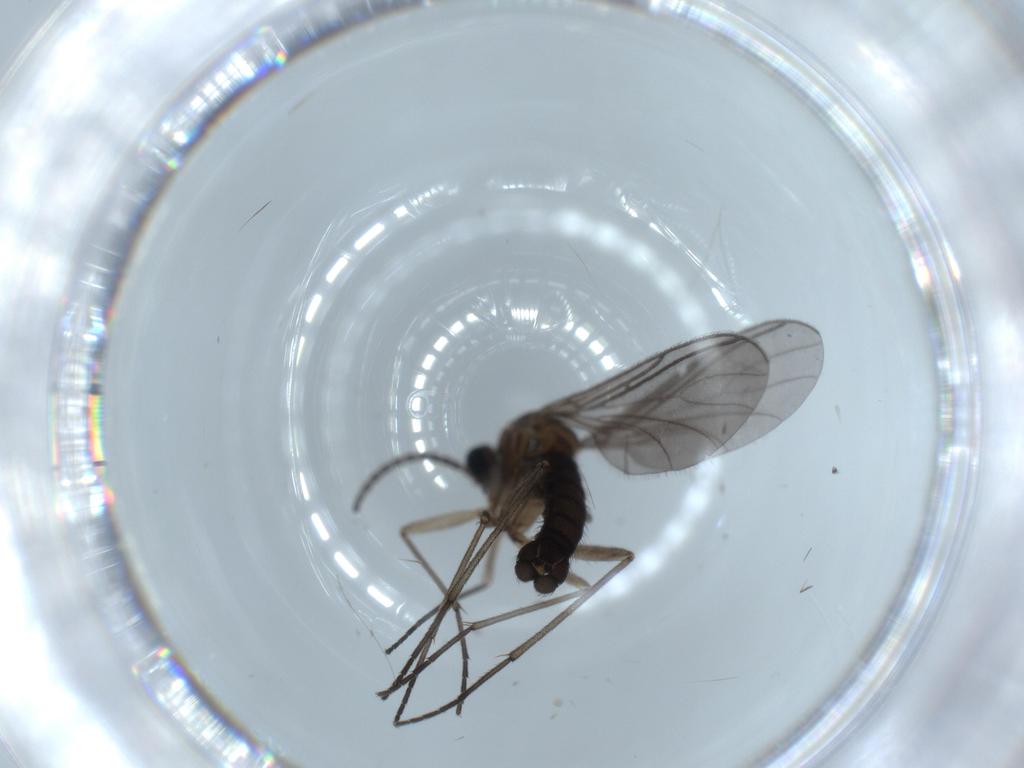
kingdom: Animalia
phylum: Arthropoda
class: Insecta
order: Diptera
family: Sciaridae
